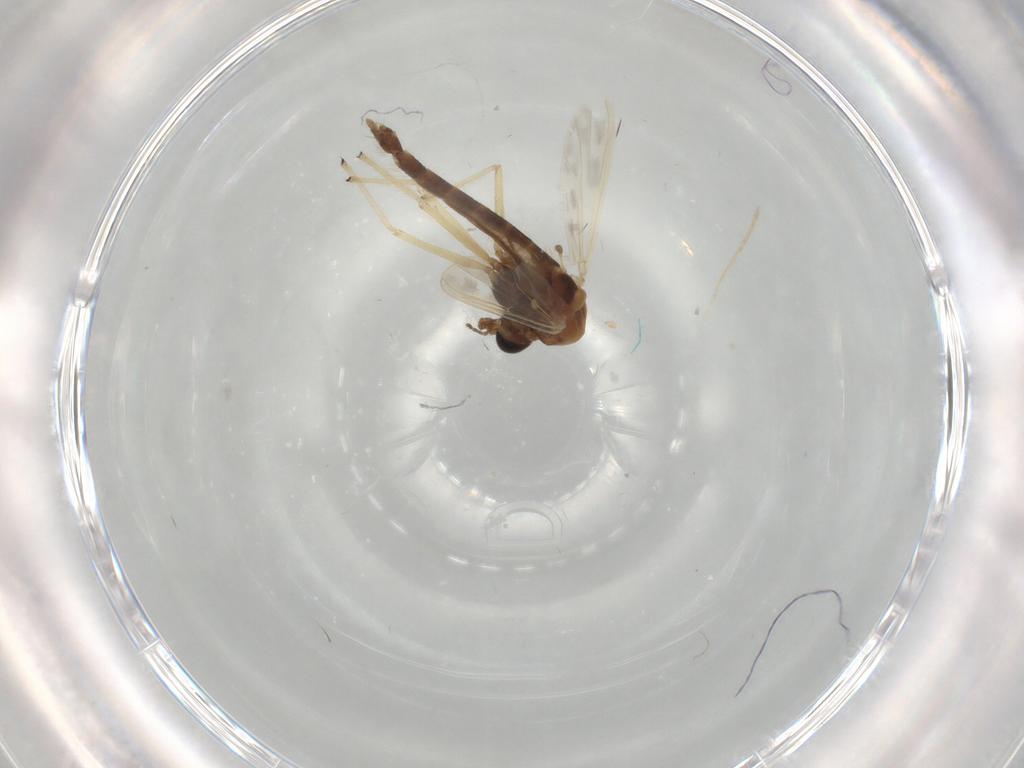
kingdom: Animalia
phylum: Arthropoda
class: Insecta
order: Diptera
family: Chironomidae
